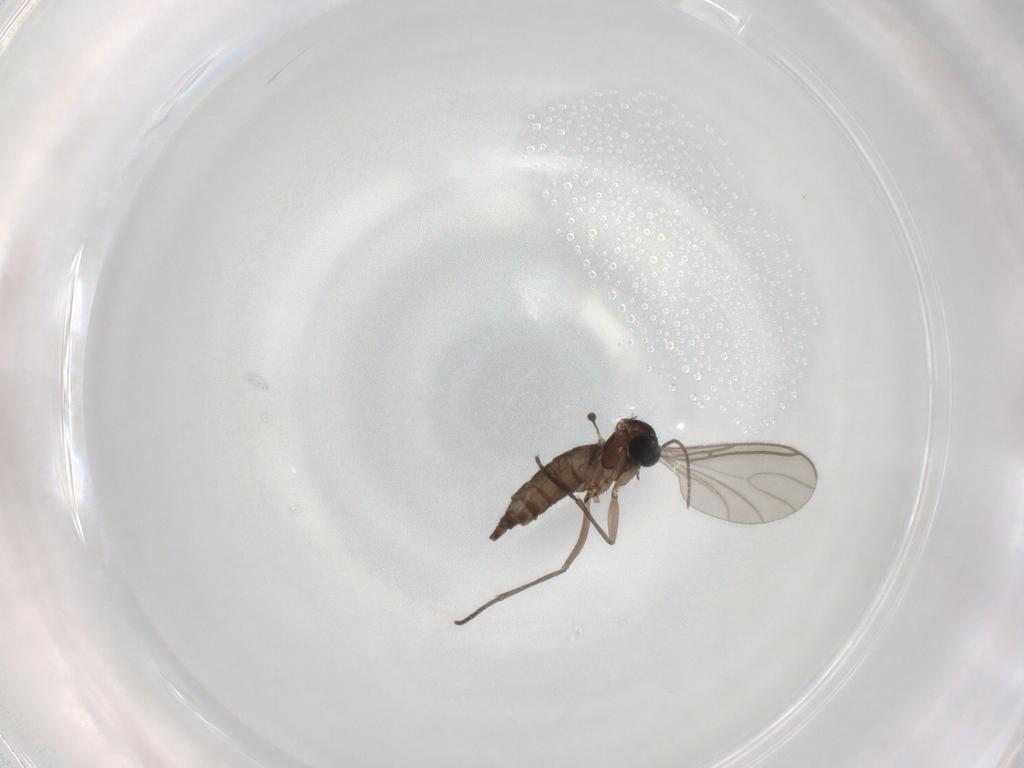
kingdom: Animalia
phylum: Arthropoda
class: Insecta
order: Diptera
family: Sciaridae
